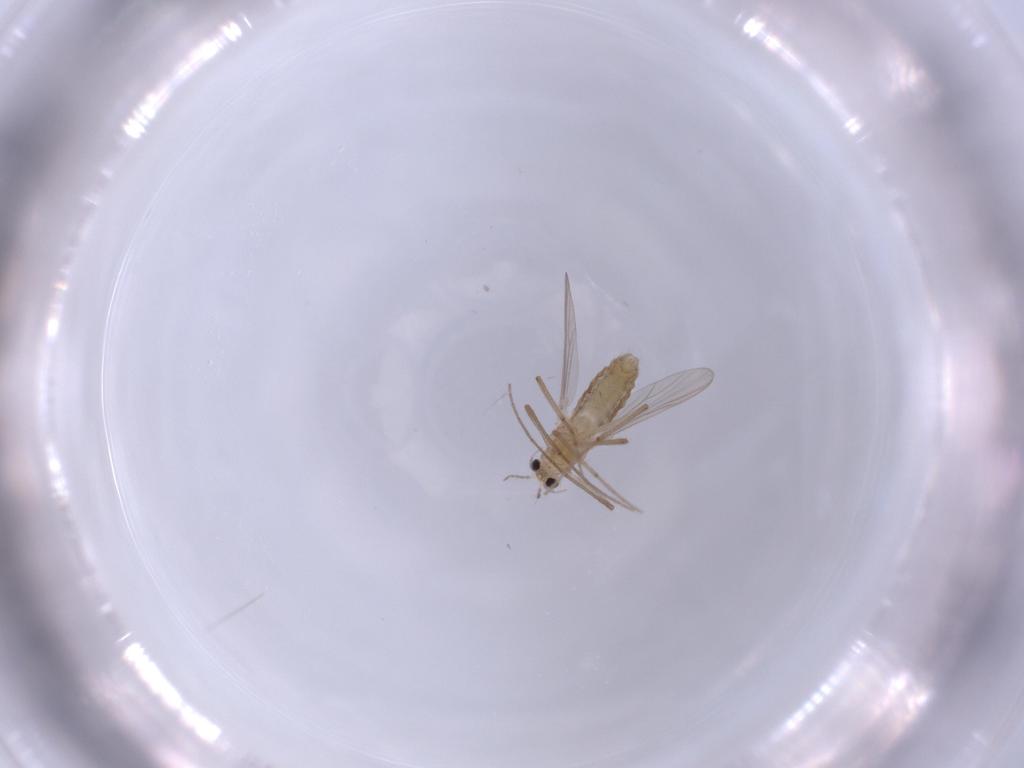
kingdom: Animalia
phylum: Arthropoda
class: Insecta
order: Diptera
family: Chironomidae
